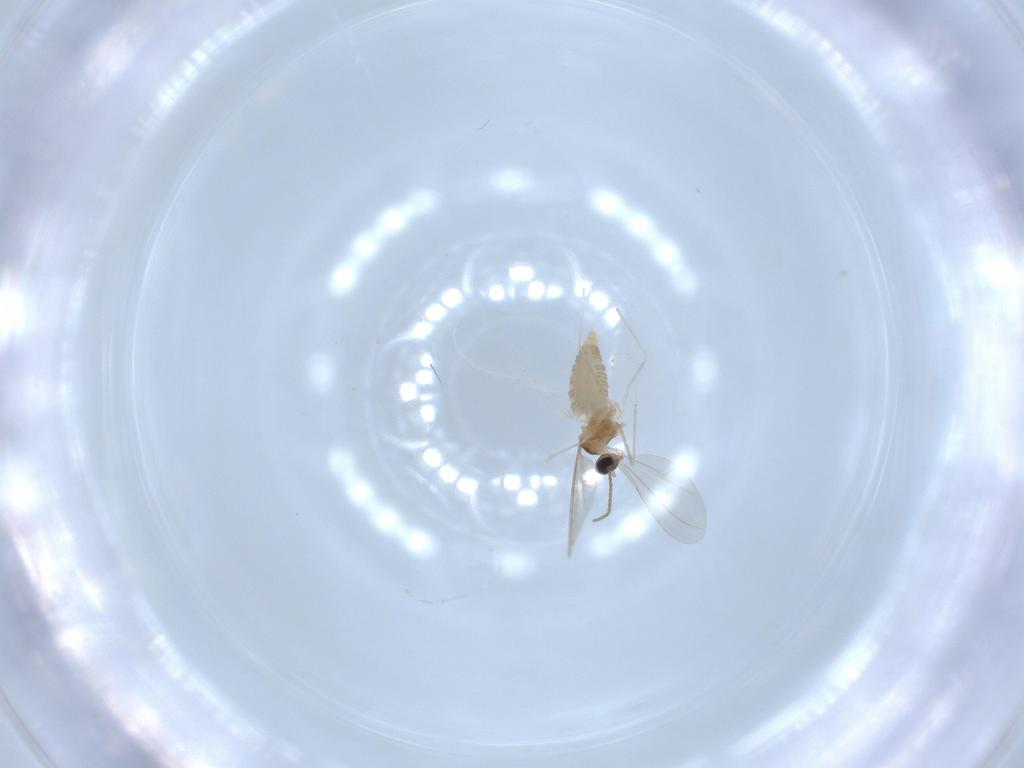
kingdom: Animalia
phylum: Arthropoda
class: Insecta
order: Diptera
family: Cecidomyiidae
